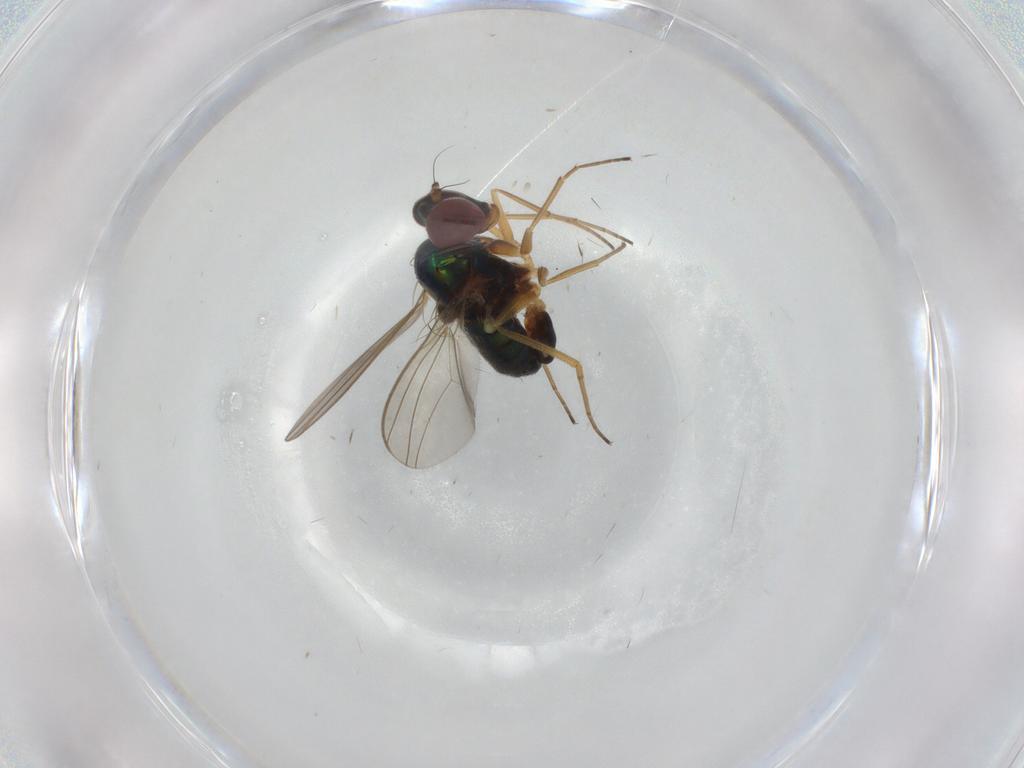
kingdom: Animalia
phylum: Arthropoda
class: Insecta
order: Diptera
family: Dolichopodidae
